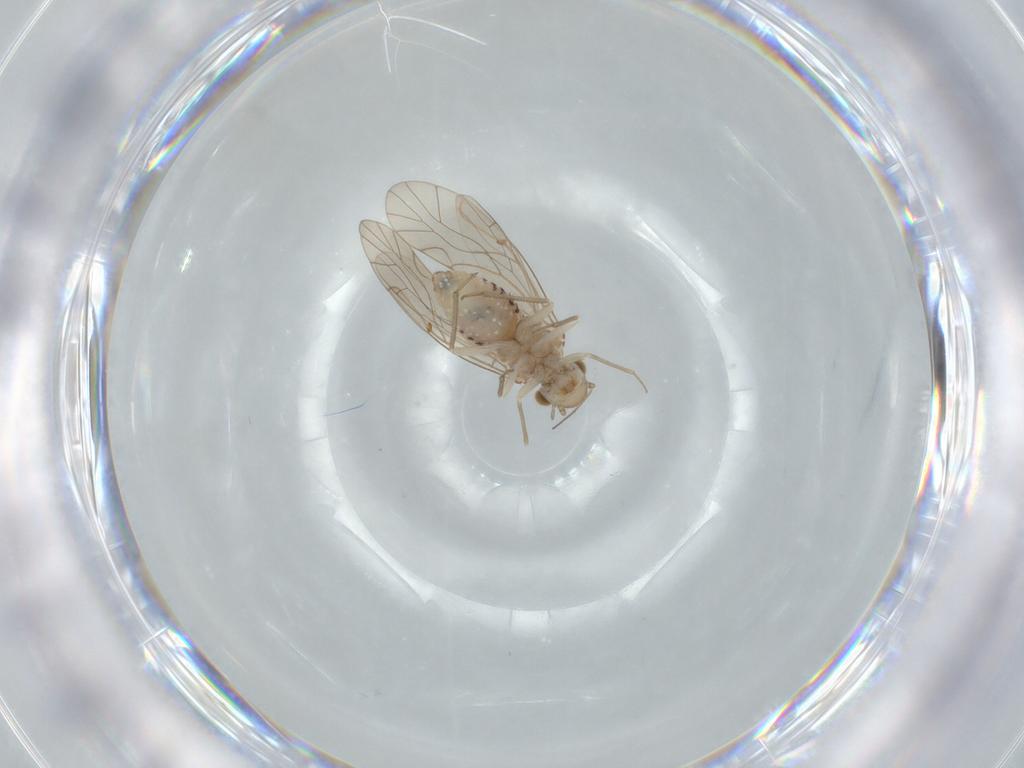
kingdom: Animalia
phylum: Arthropoda
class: Insecta
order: Psocodea
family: Lachesillidae
